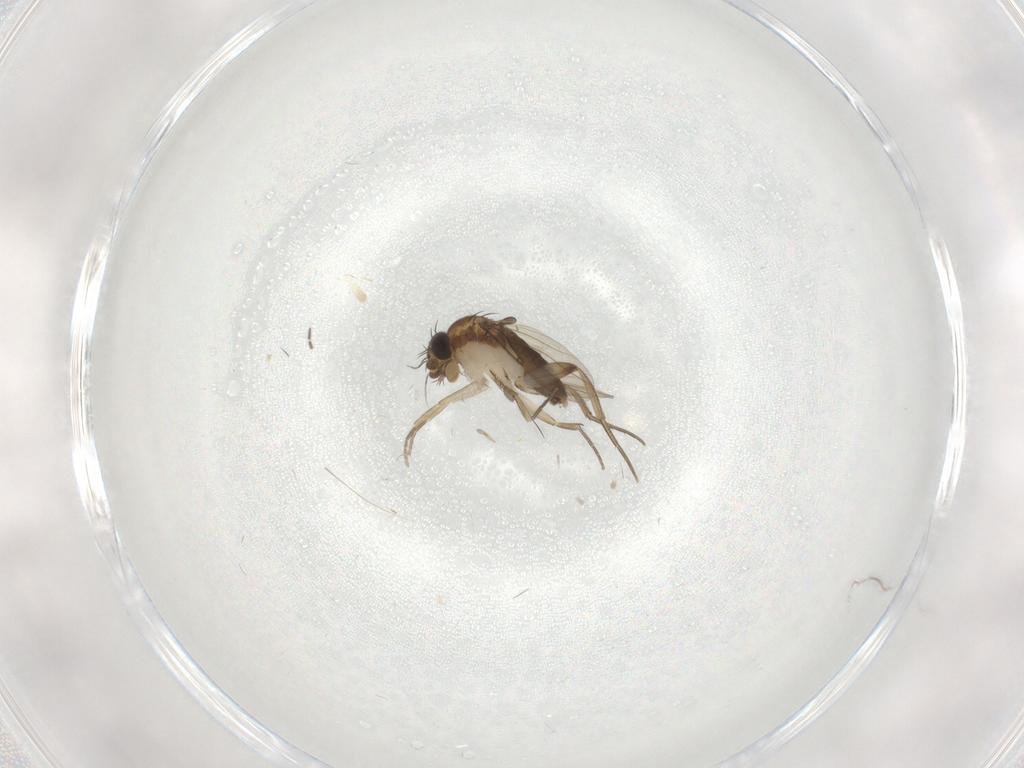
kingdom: Animalia
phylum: Arthropoda
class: Insecta
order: Diptera
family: Phoridae
